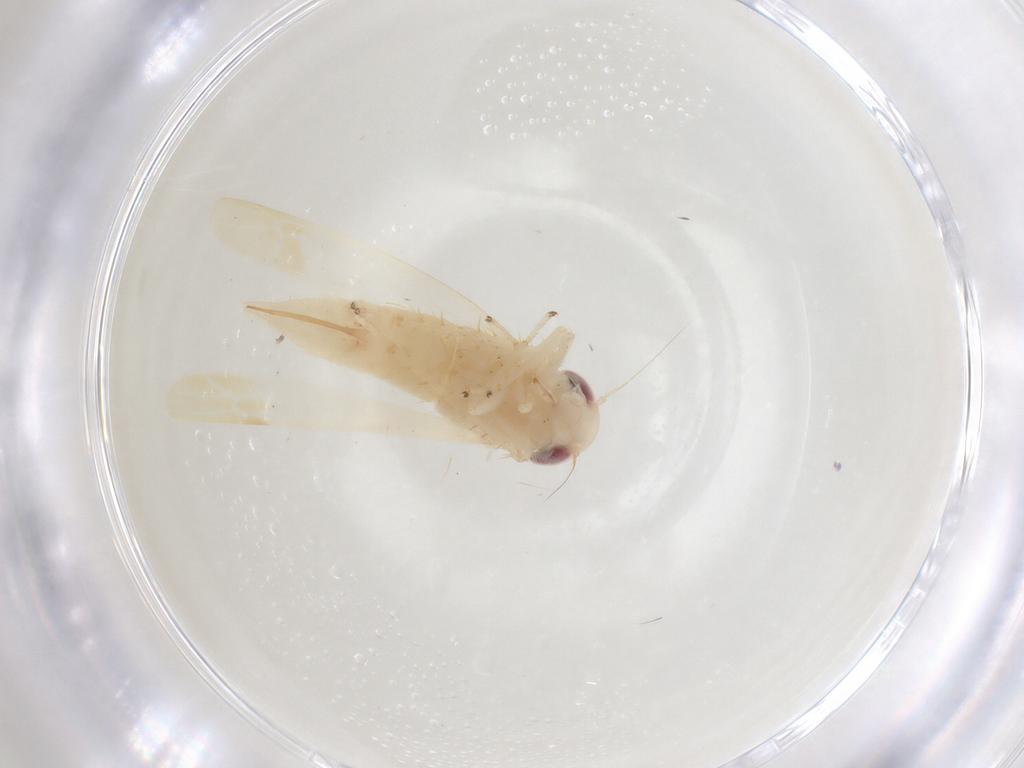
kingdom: Animalia
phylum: Arthropoda
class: Insecta
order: Hemiptera
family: Cicadellidae
